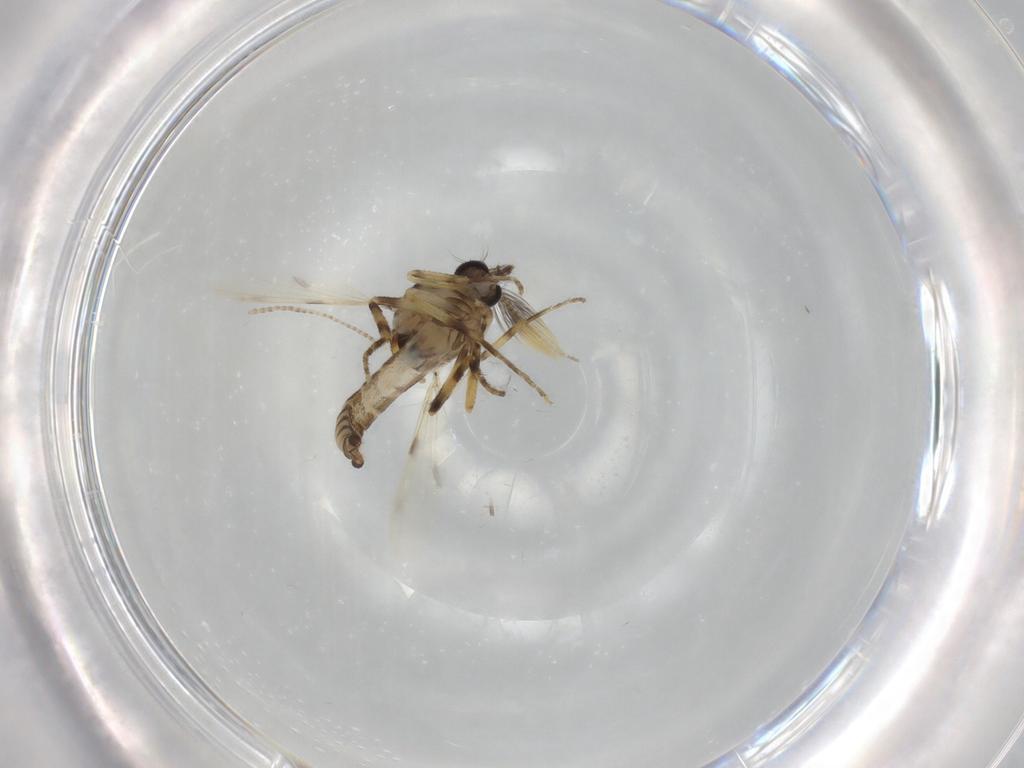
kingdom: Animalia
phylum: Arthropoda
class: Insecta
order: Diptera
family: Ceratopogonidae
